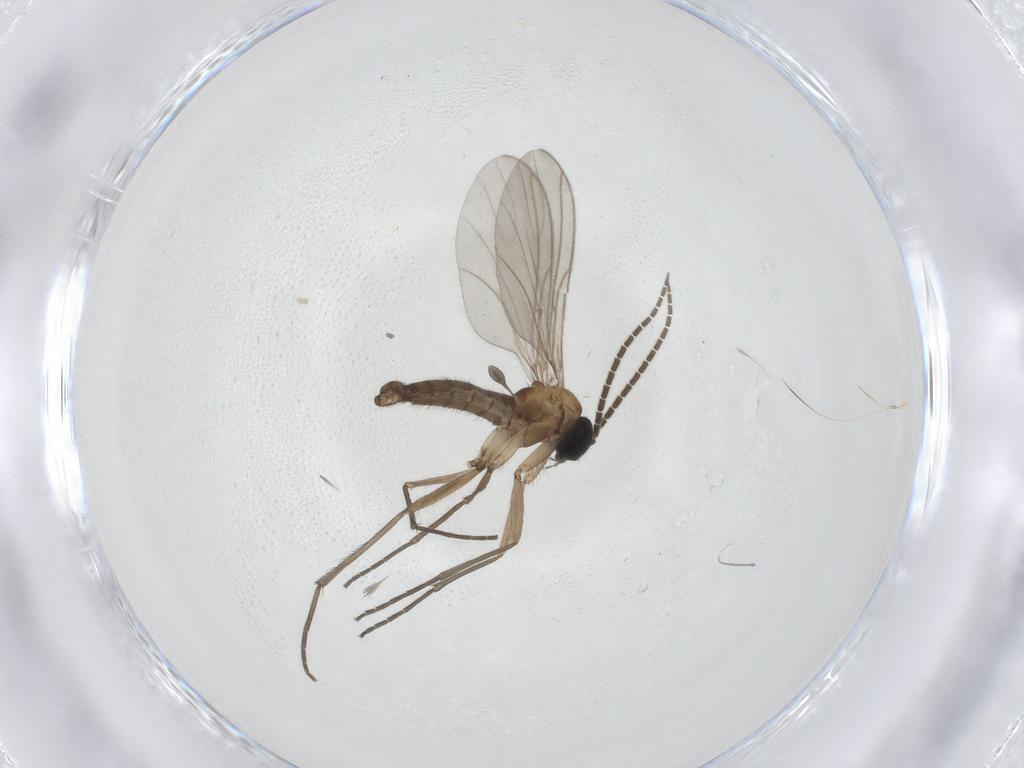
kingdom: Animalia
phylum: Arthropoda
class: Insecta
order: Diptera
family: Sciaridae
